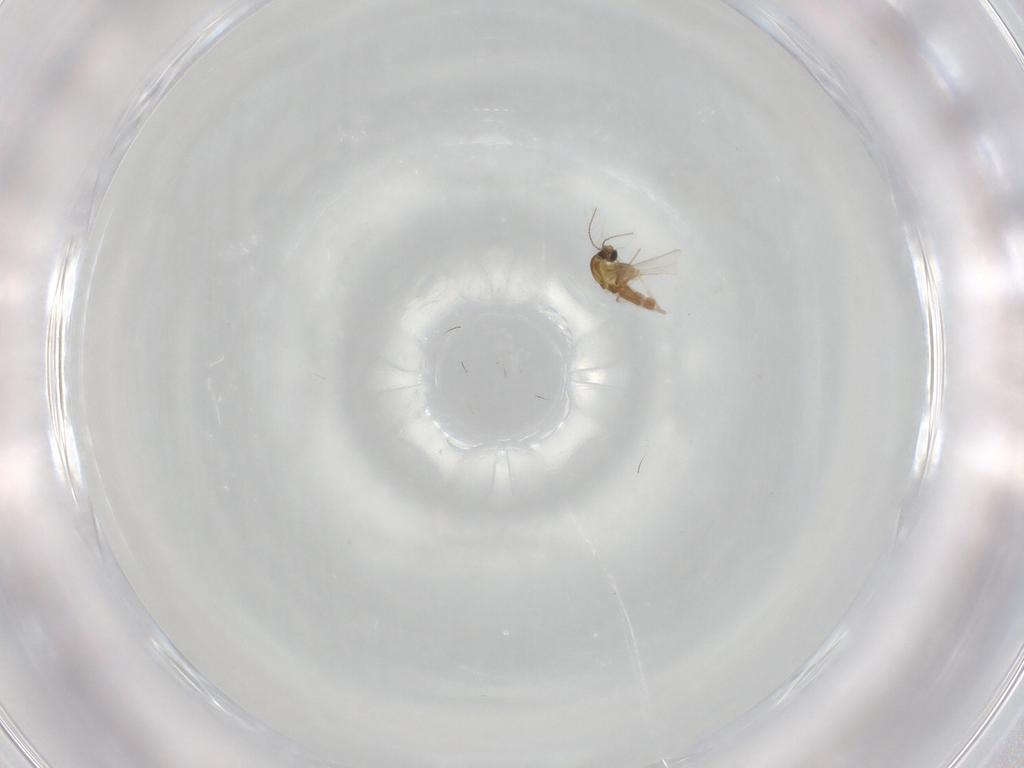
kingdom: Animalia
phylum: Arthropoda
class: Insecta
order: Diptera
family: Chironomidae
